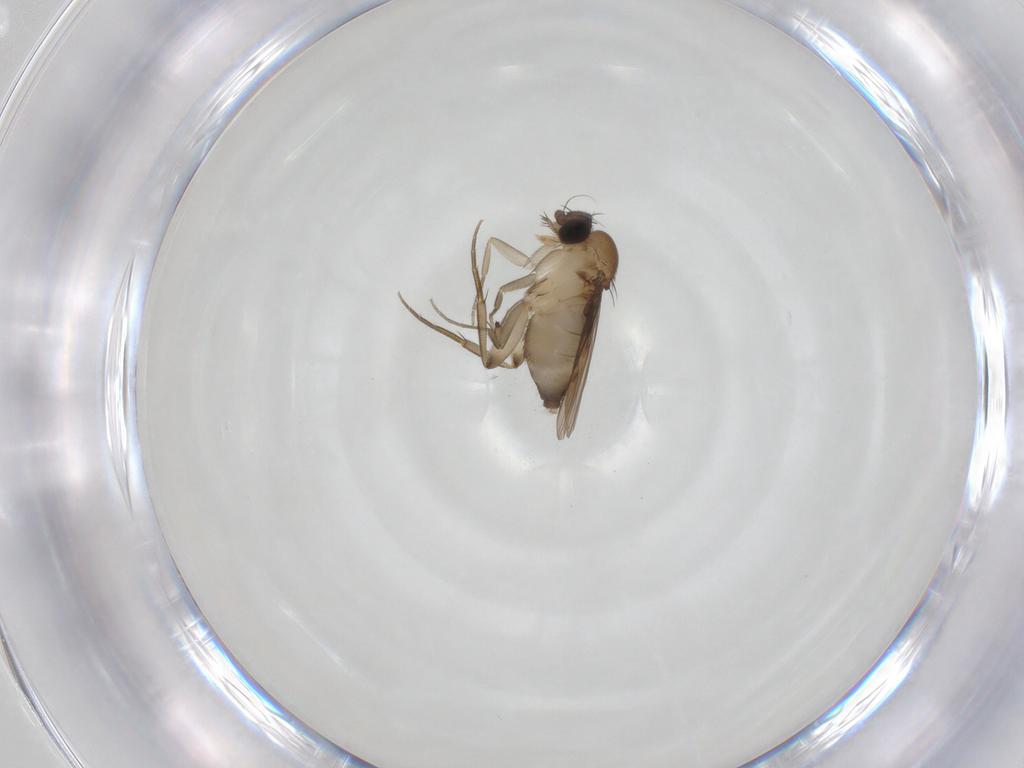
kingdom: Animalia
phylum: Arthropoda
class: Insecta
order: Diptera
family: Phoridae
